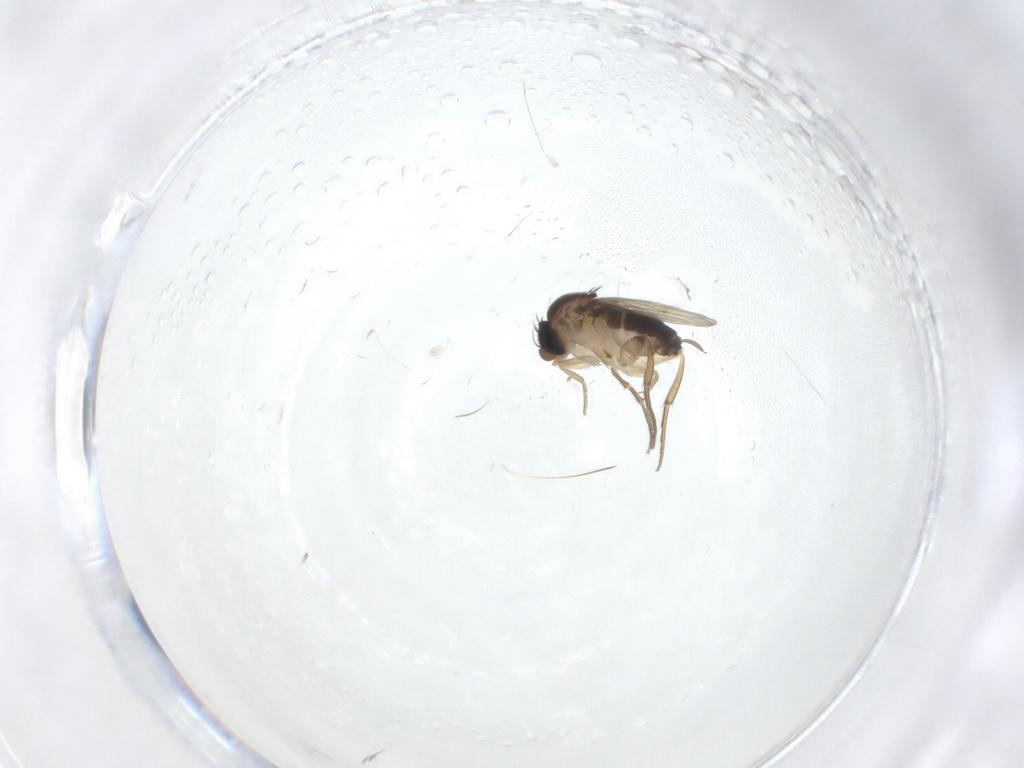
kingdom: Animalia
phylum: Arthropoda
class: Insecta
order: Diptera
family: Phoridae
